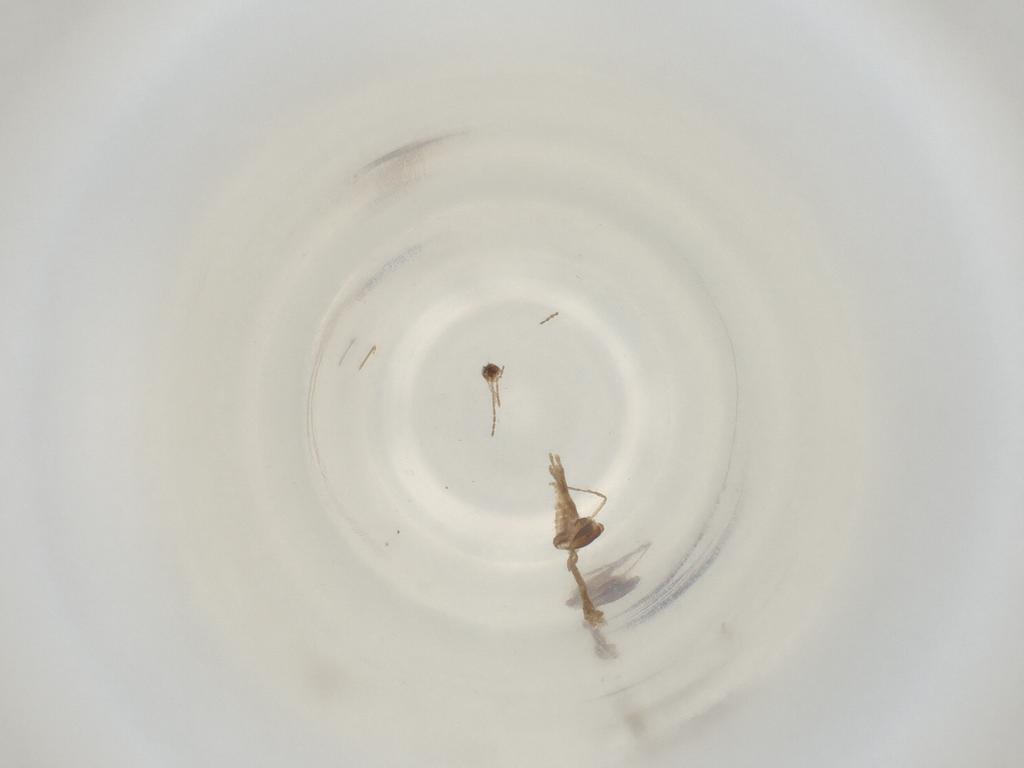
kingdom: Animalia
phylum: Arthropoda
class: Insecta
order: Diptera
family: Cecidomyiidae
